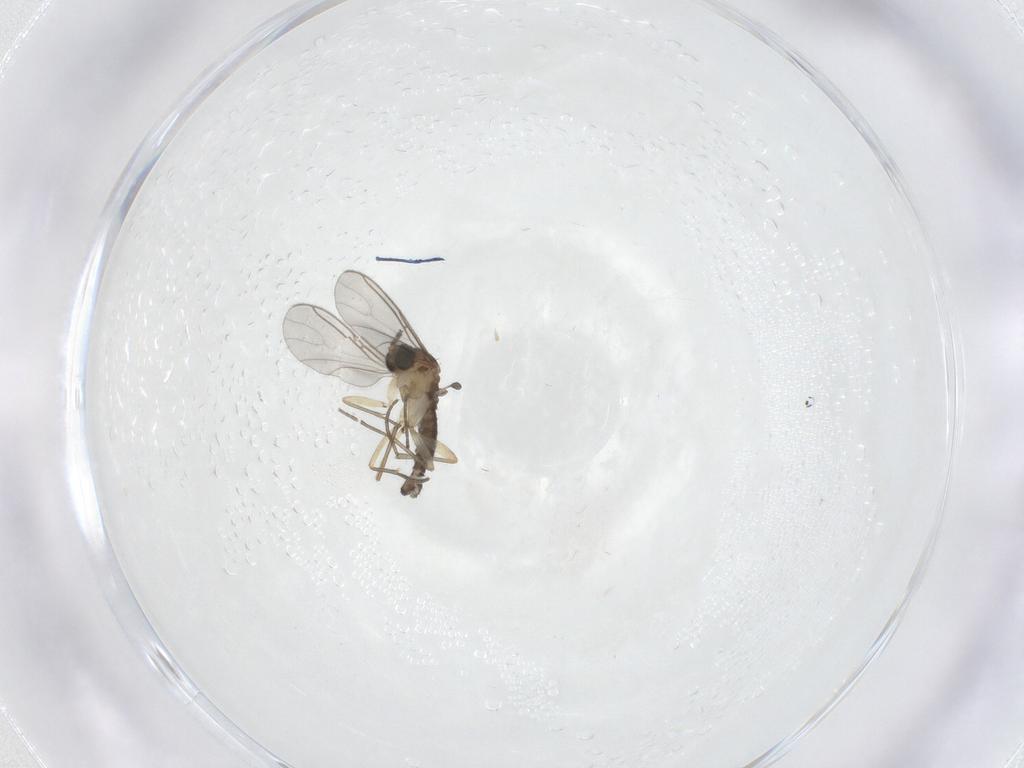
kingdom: Animalia
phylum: Arthropoda
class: Insecta
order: Diptera
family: Sciaridae
